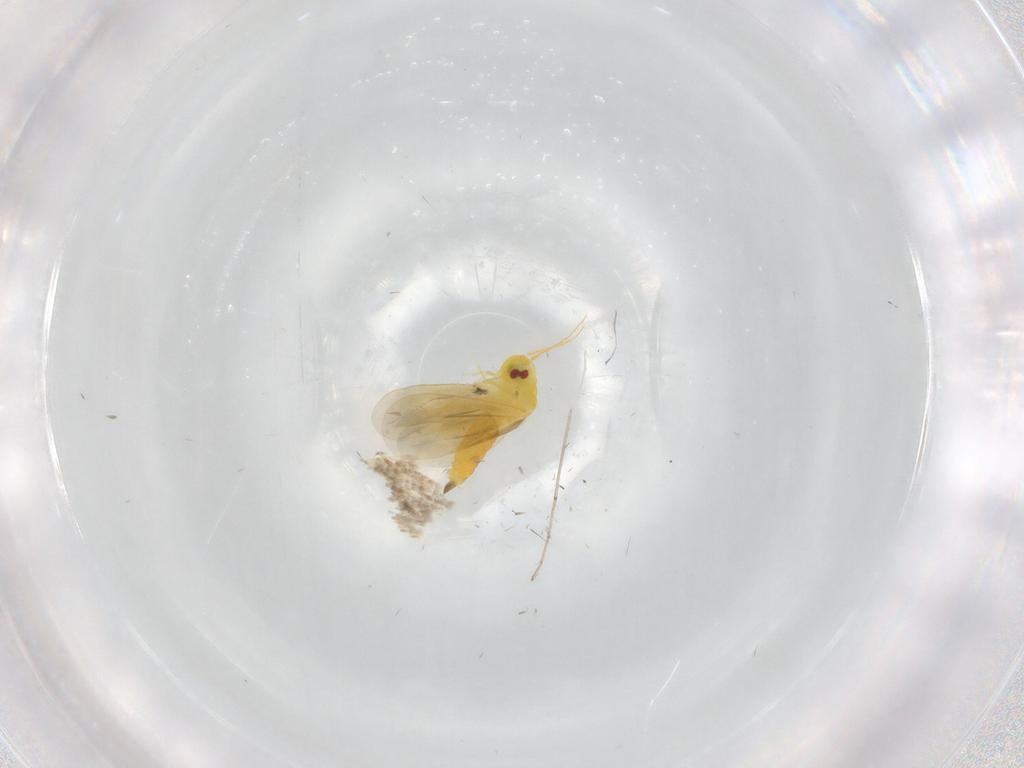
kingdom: Animalia
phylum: Arthropoda
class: Insecta
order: Hemiptera
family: Aleyrodidae
